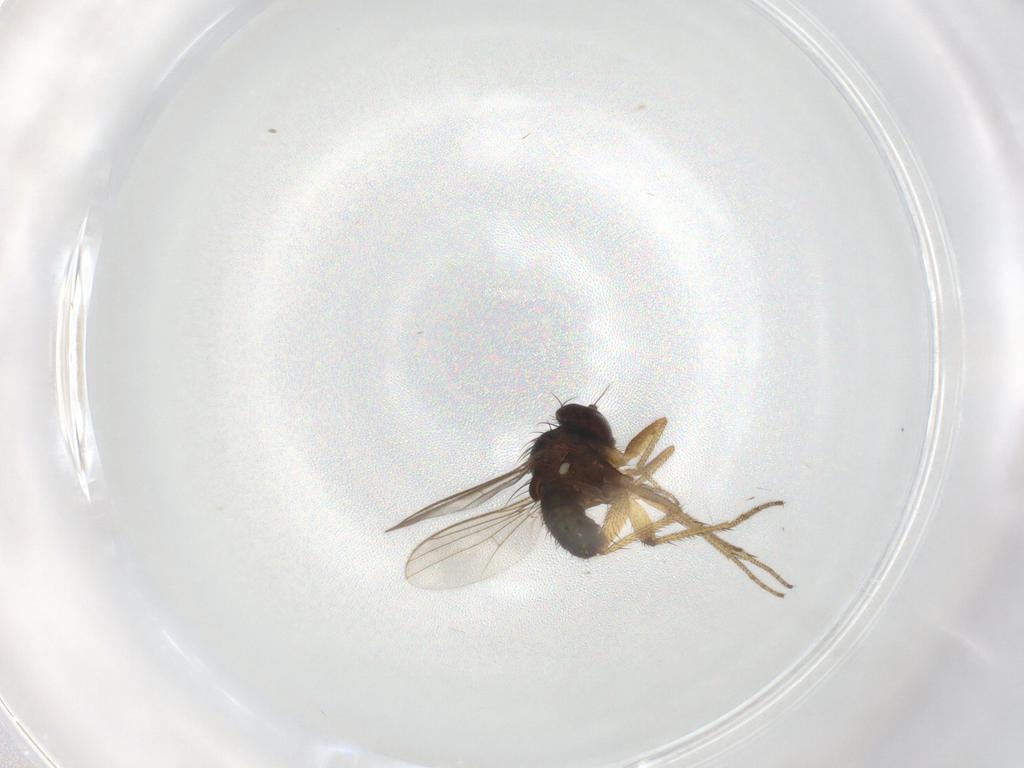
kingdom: Animalia
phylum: Arthropoda
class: Insecta
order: Diptera
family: Dolichopodidae
